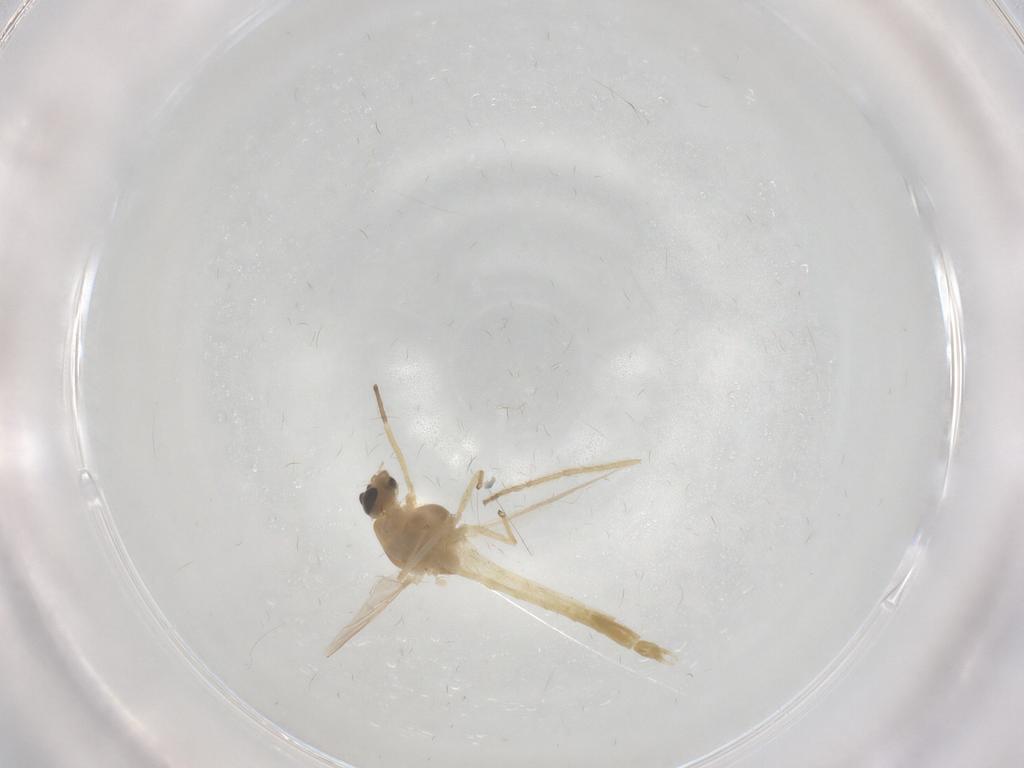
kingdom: Animalia
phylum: Arthropoda
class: Insecta
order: Diptera
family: Chironomidae
